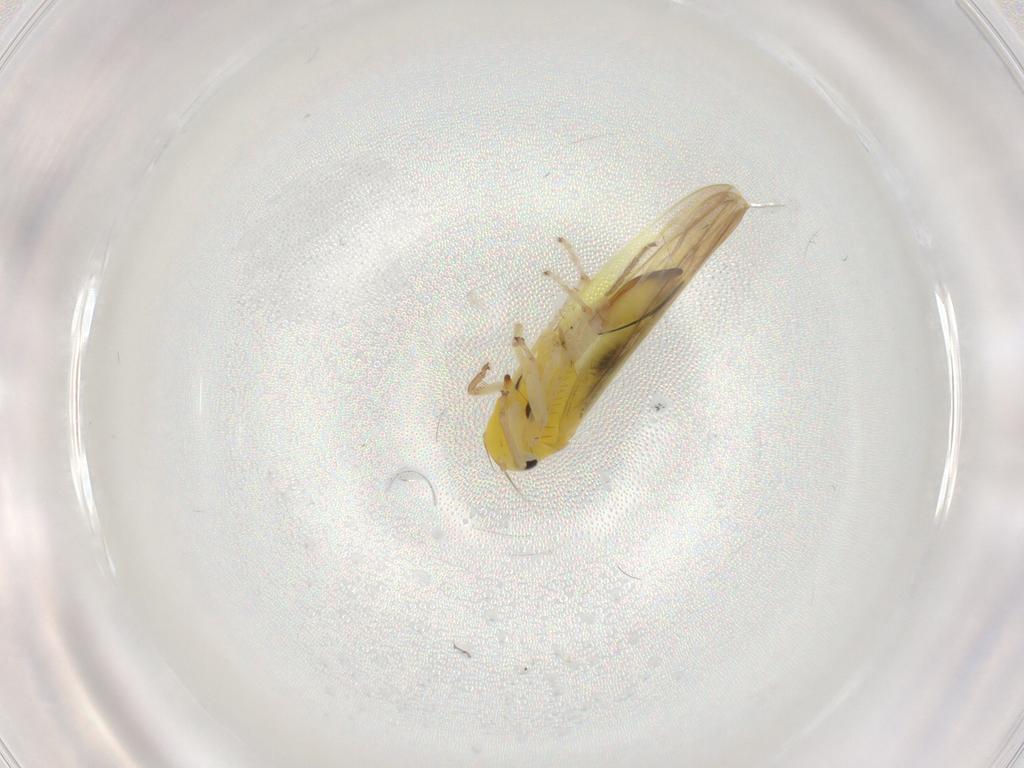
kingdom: Animalia
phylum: Arthropoda
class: Insecta
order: Hemiptera
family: Cicadellidae
